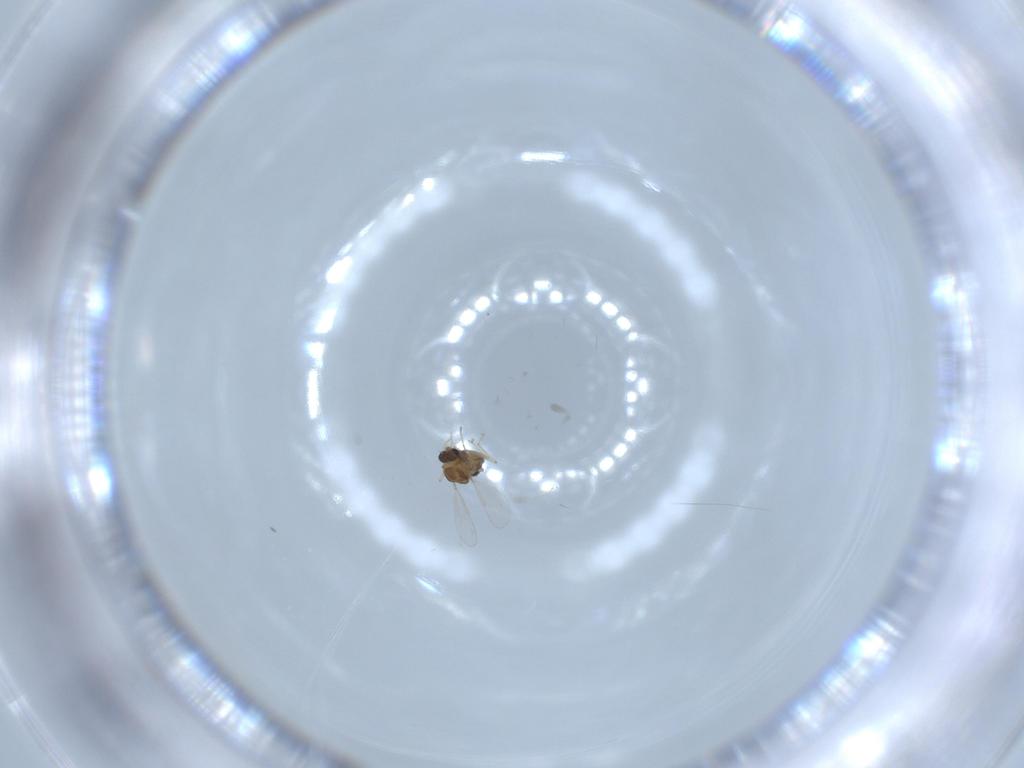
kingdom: Animalia
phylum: Arthropoda
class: Insecta
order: Diptera
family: Chironomidae
